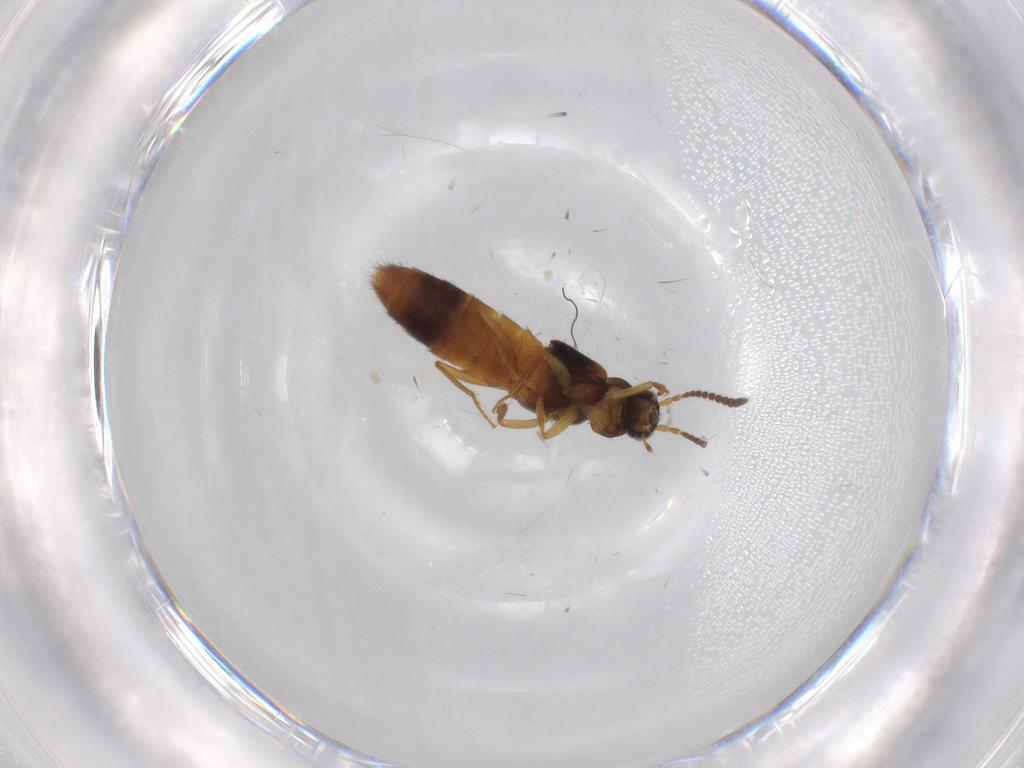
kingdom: Animalia
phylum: Arthropoda
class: Insecta
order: Coleoptera
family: Staphylinidae
